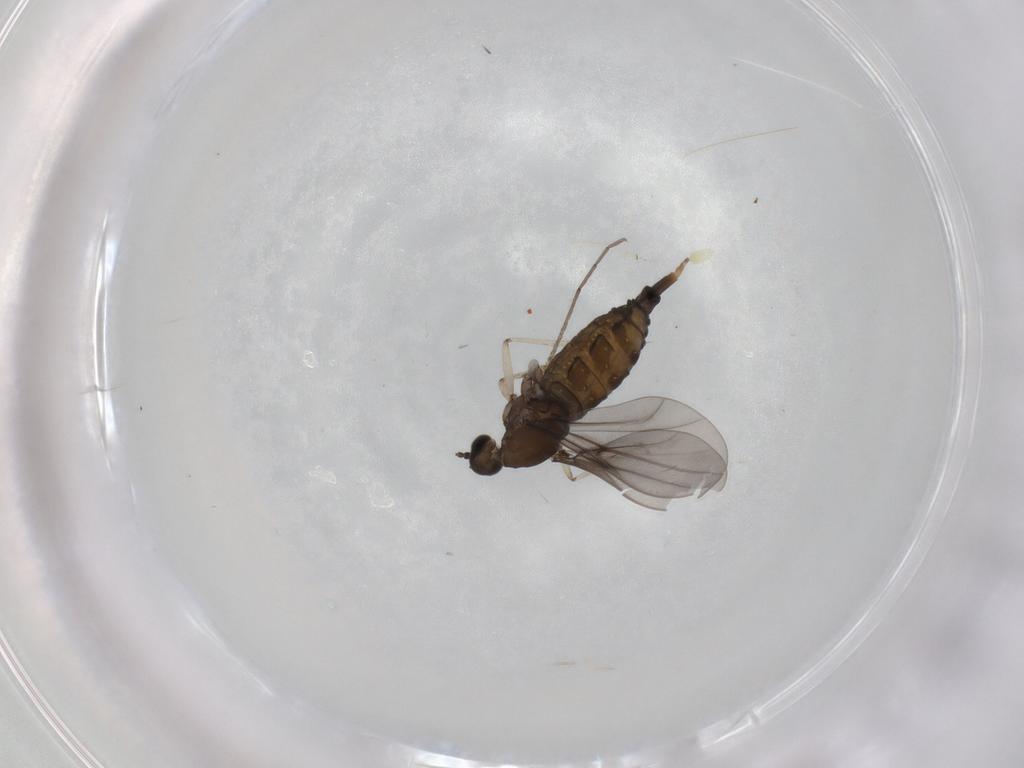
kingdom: Animalia
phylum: Arthropoda
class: Insecta
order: Diptera
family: Cecidomyiidae
